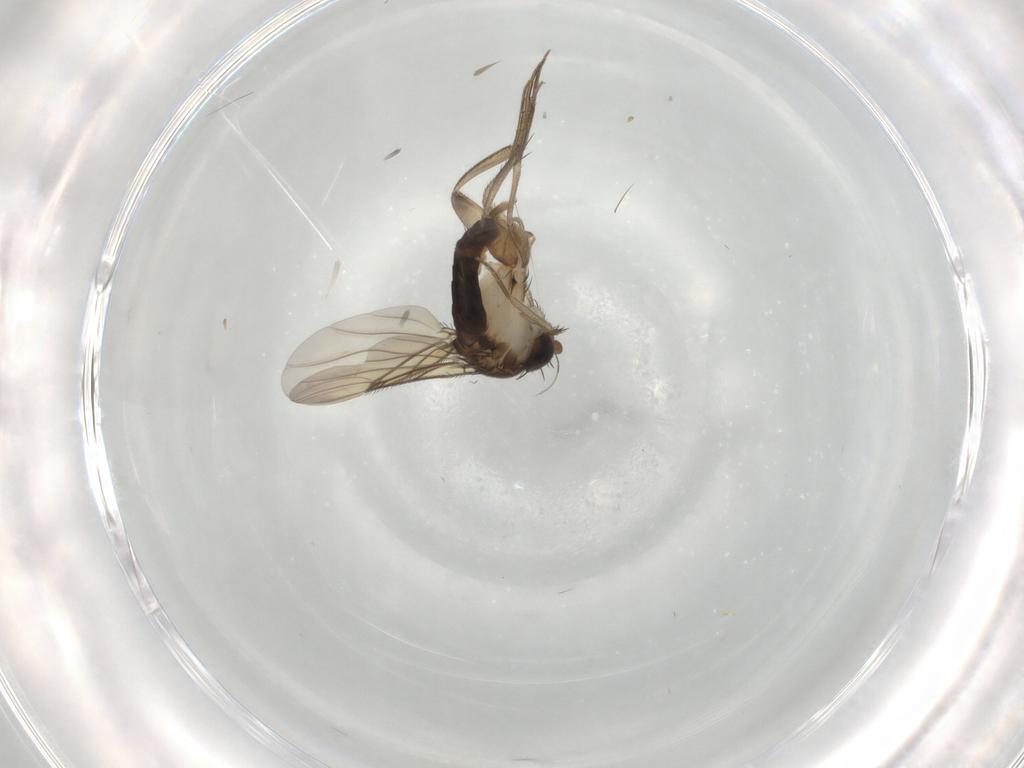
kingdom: Animalia
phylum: Arthropoda
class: Insecta
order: Diptera
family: Phoridae
